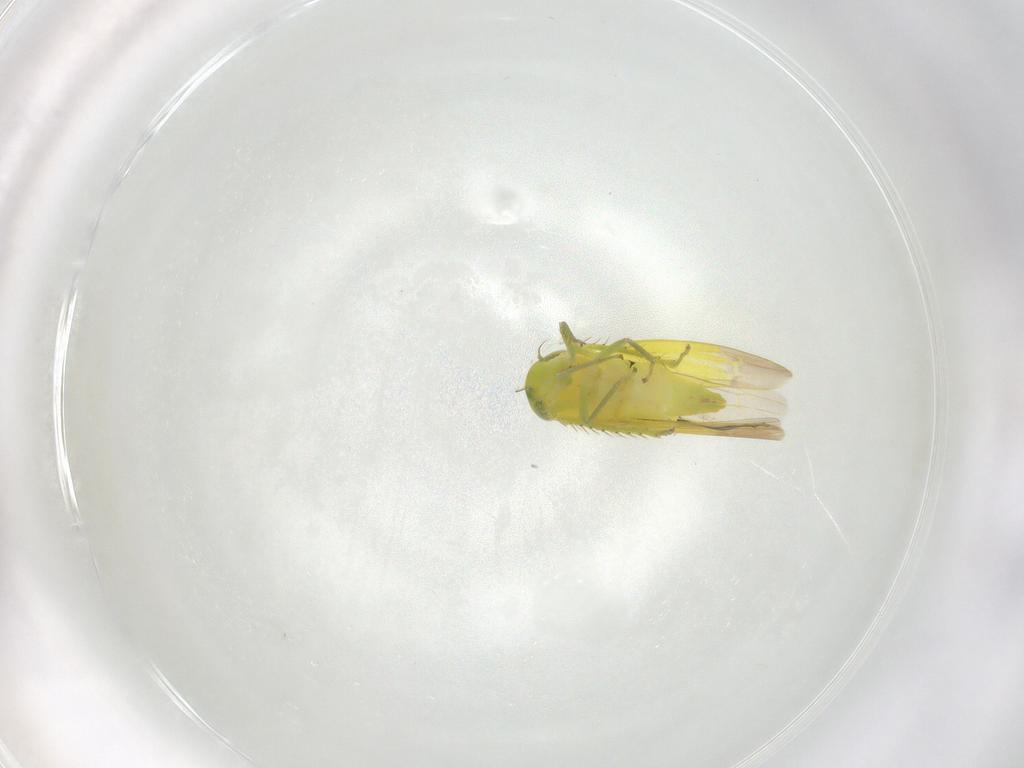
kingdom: Animalia
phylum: Arthropoda
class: Insecta
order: Hemiptera
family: Cicadellidae
